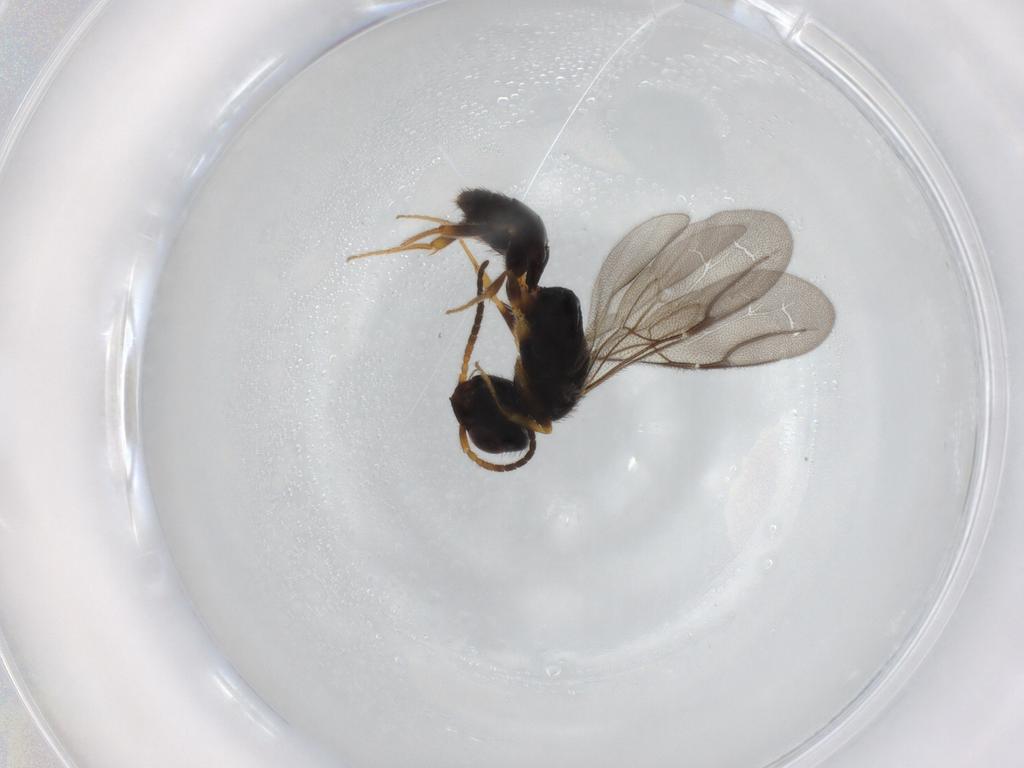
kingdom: Animalia
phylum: Arthropoda
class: Insecta
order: Hymenoptera
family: Bethylidae
